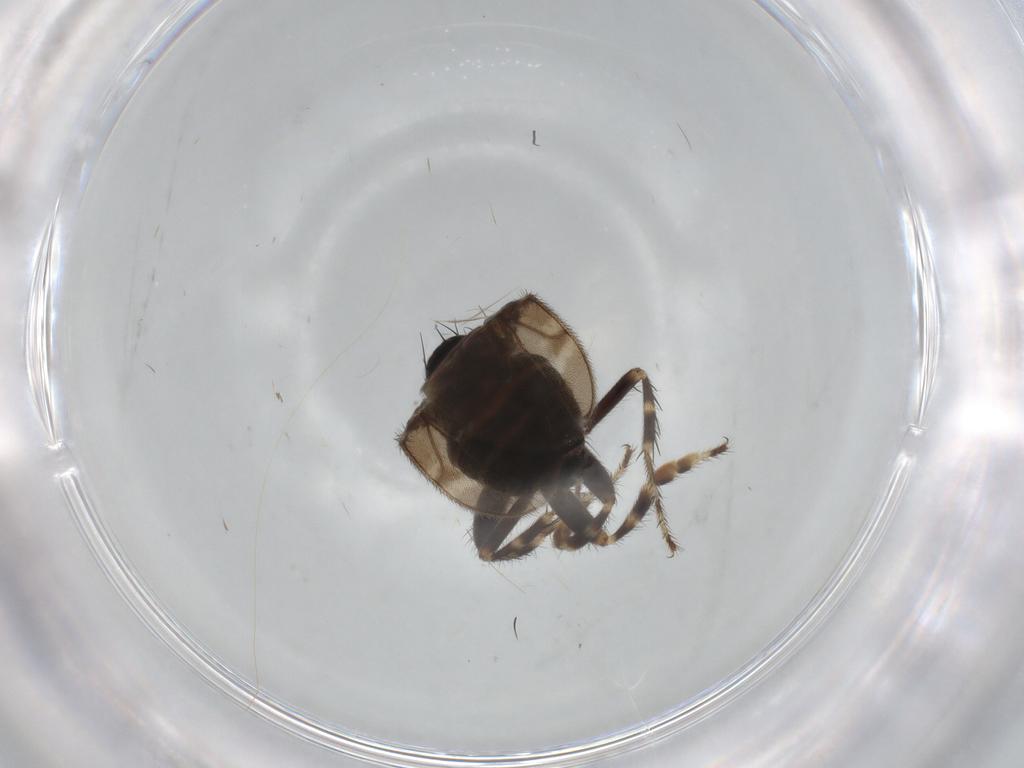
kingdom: Animalia
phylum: Arthropoda
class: Insecta
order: Diptera
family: Sphaeroceridae
